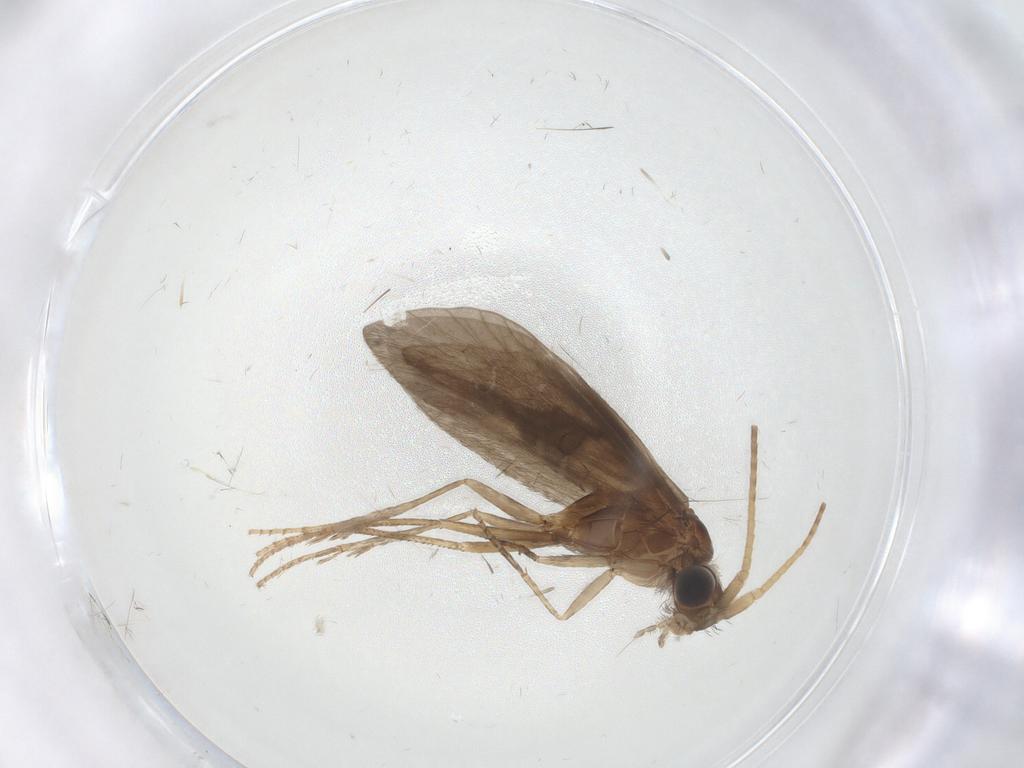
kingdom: Animalia
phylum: Arthropoda
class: Insecta
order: Trichoptera
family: Helicopsychidae
